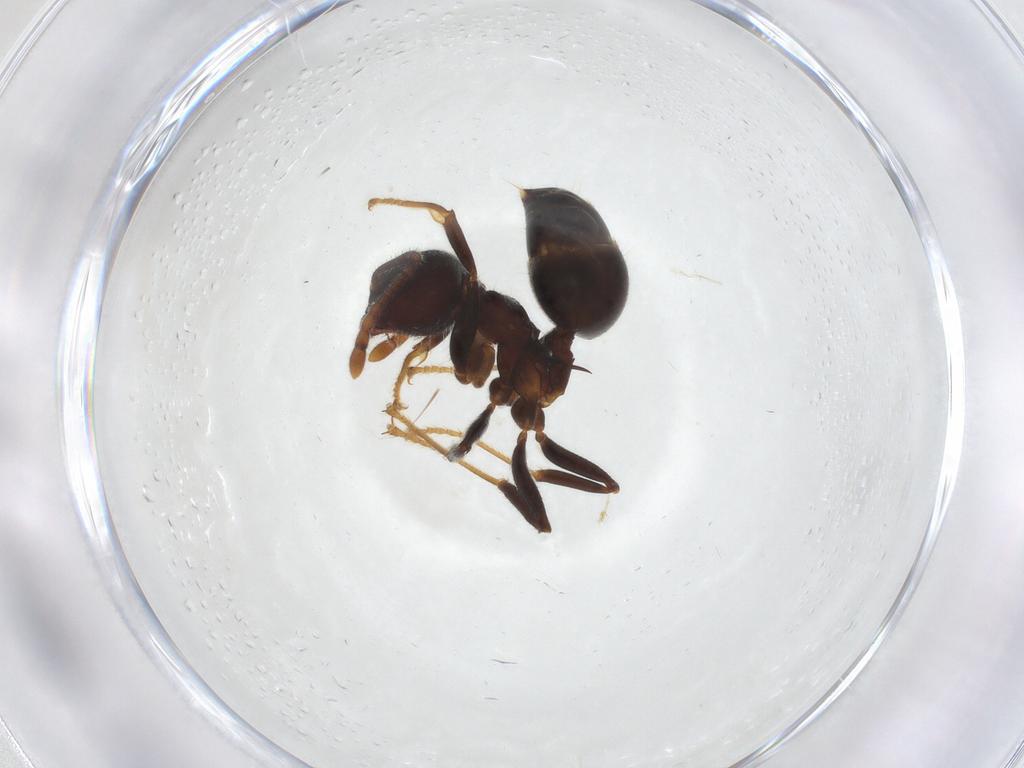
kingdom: Animalia
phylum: Arthropoda
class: Insecta
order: Hymenoptera
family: Formicidae
